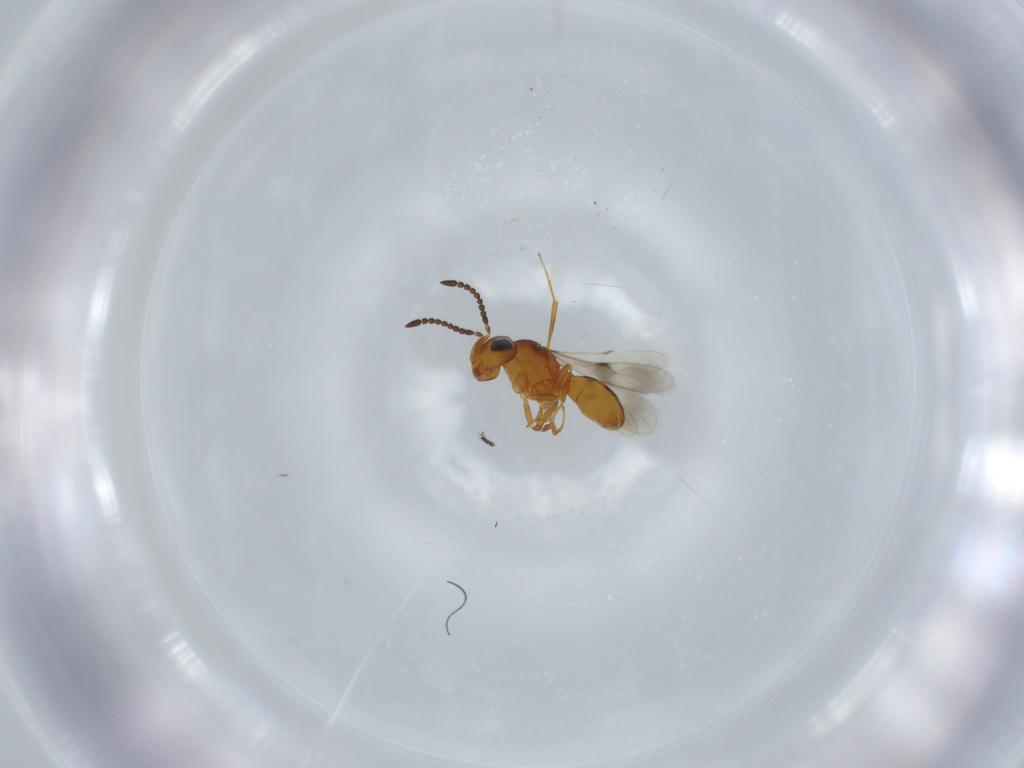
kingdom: Animalia
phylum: Arthropoda
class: Insecta
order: Hymenoptera
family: Scelionidae
